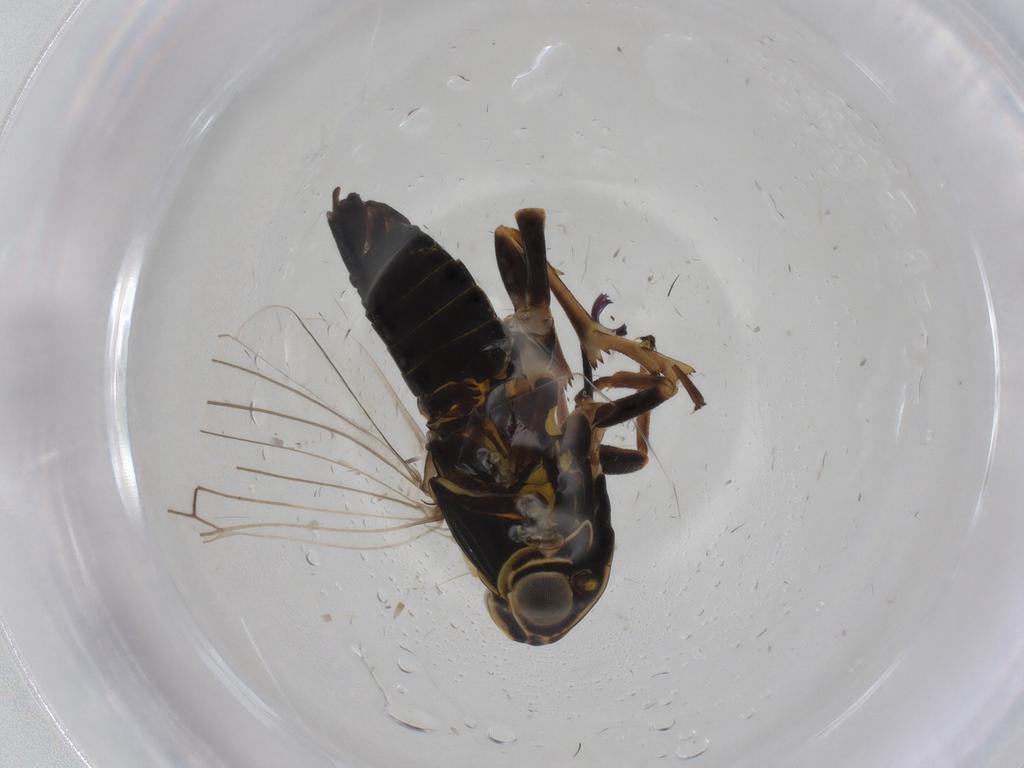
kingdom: Animalia
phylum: Arthropoda
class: Insecta
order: Hemiptera
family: Cixiidae
